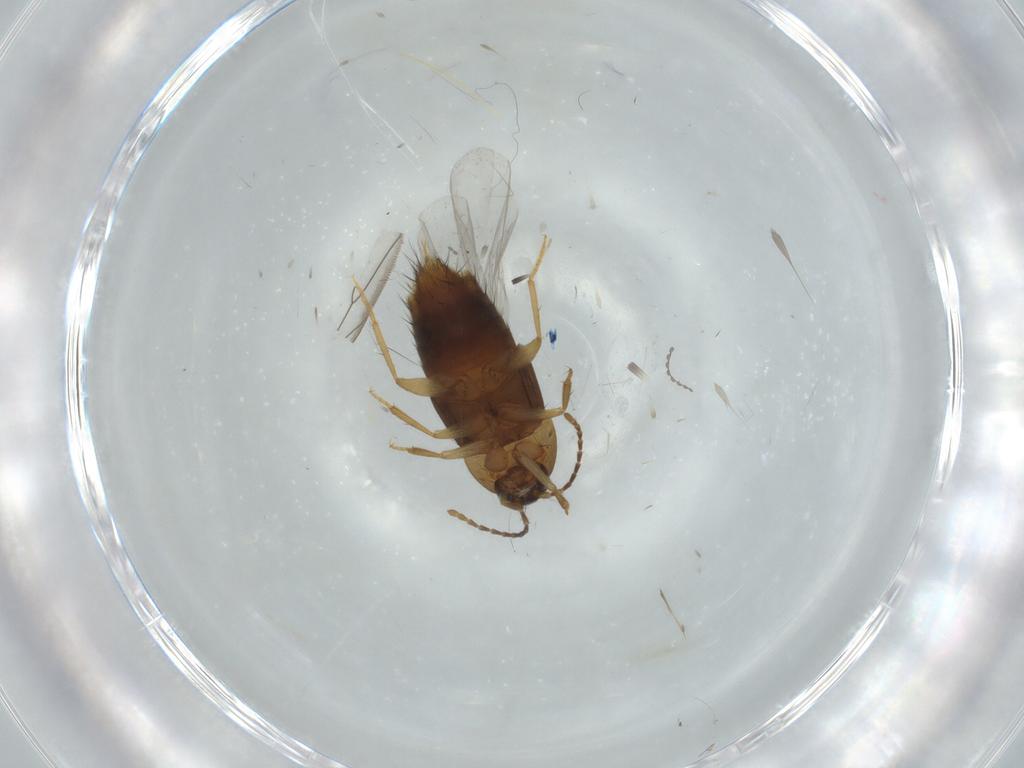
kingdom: Animalia
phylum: Arthropoda
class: Insecta
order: Coleoptera
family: Staphylinidae
